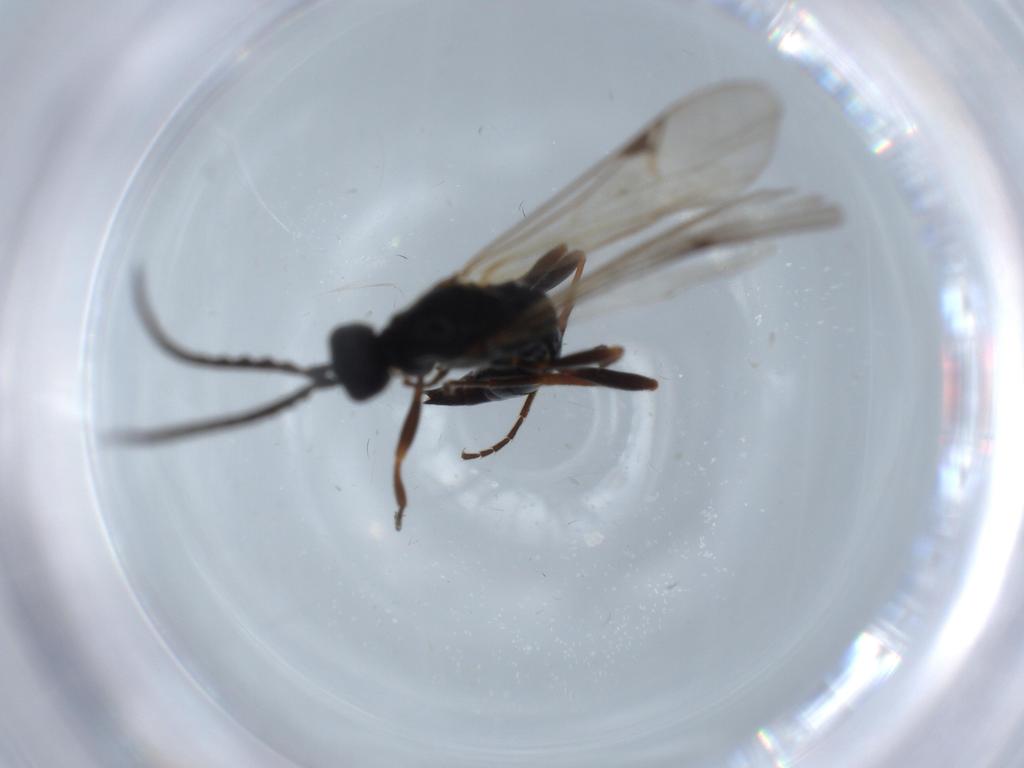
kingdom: Animalia
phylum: Arthropoda
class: Insecta
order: Hymenoptera
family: Proctotrupidae
